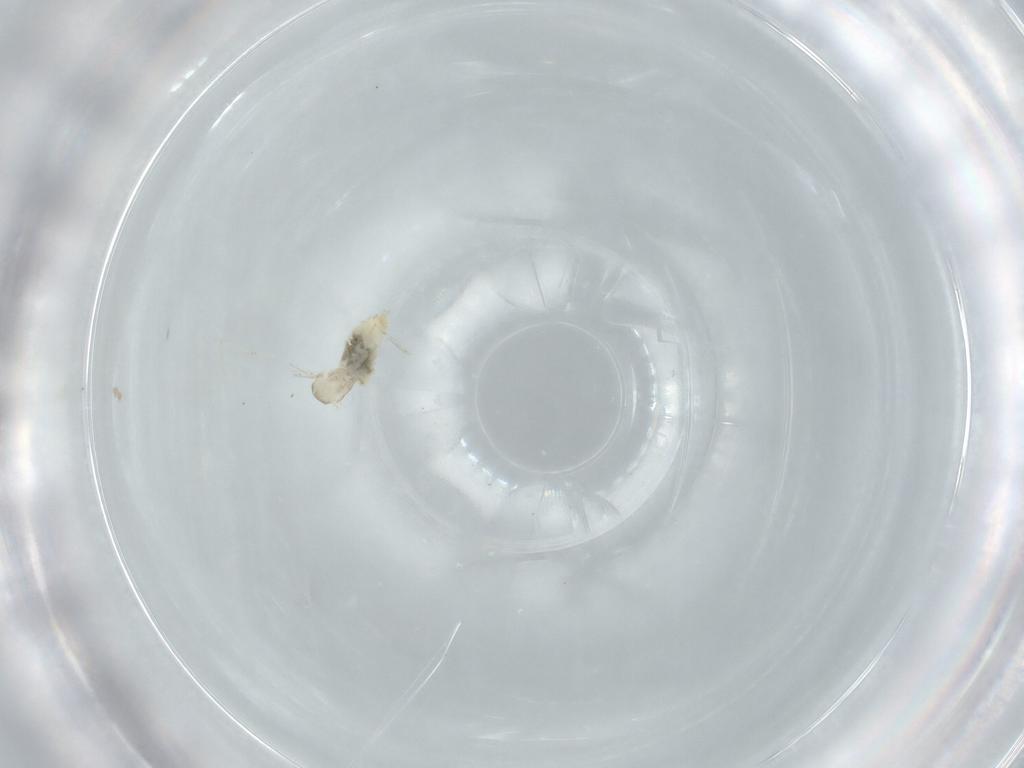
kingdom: Animalia
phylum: Arthropoda
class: Insecta
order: Diptera
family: Cecidomyiidae
